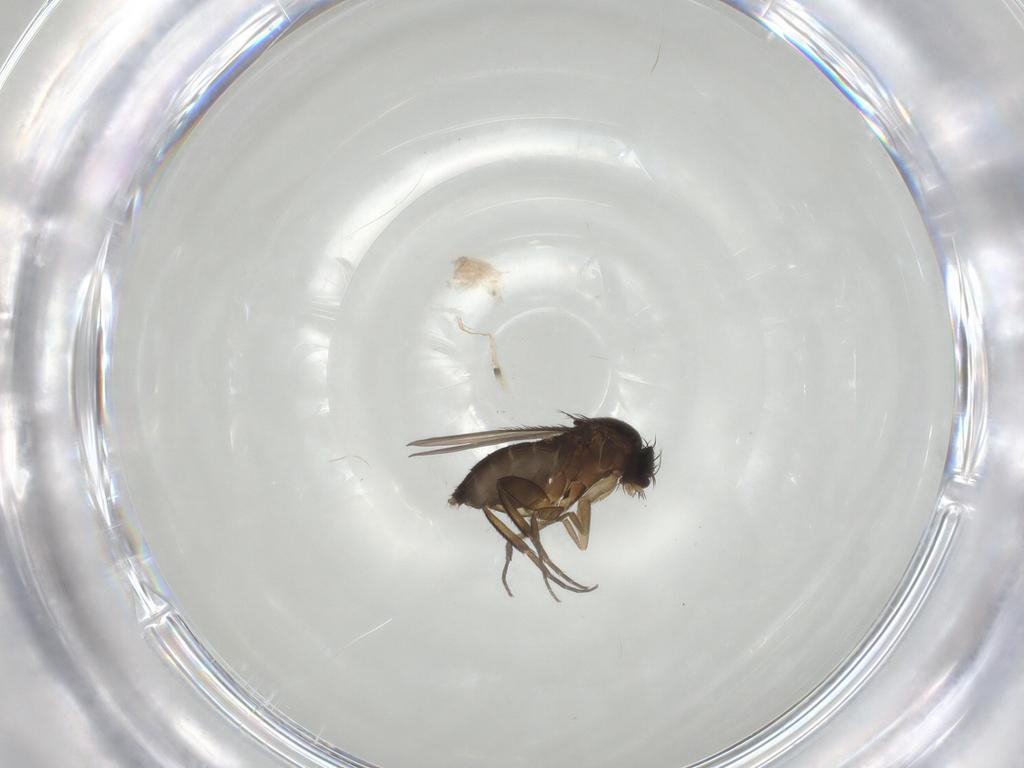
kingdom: Animalia
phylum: Arthropoda
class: Insecta
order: Diptera
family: Phoridae
